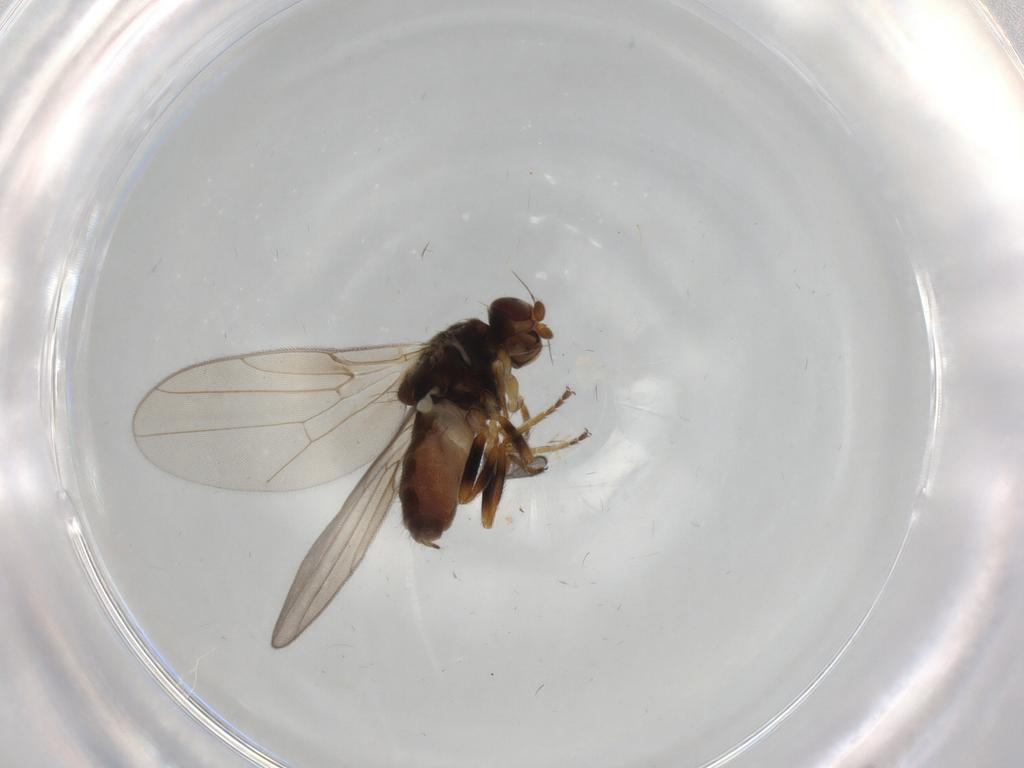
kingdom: Animalia
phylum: Arthropoda
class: Insecta
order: Diptera
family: Chloropidae
